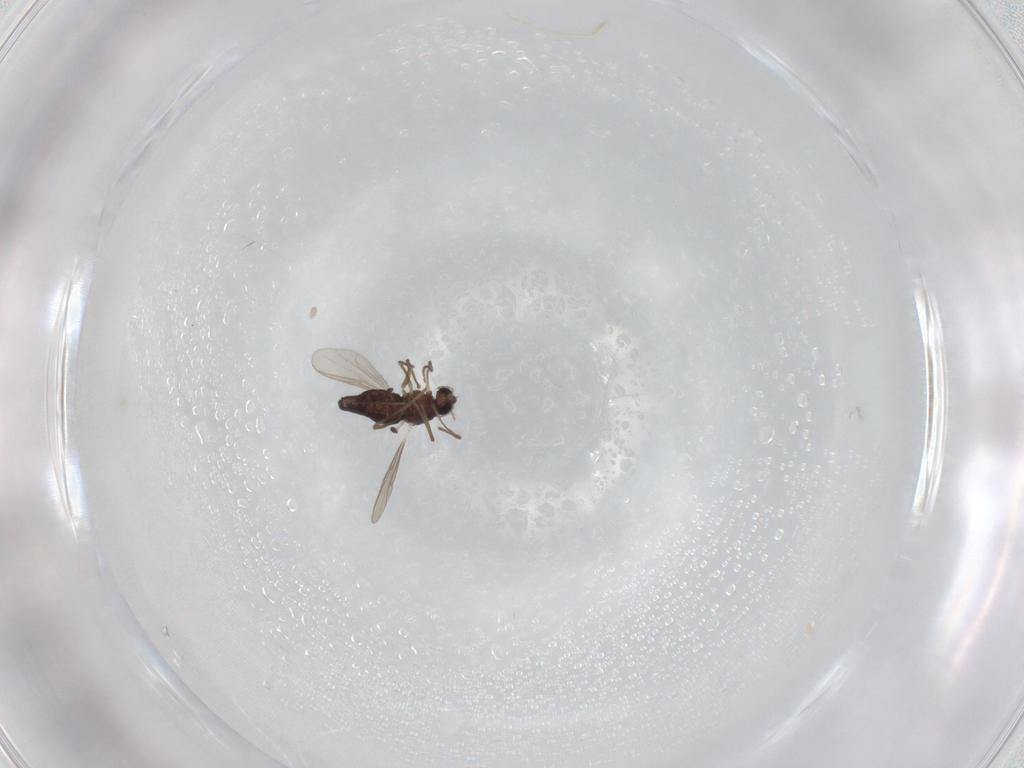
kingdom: Animalia
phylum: Arthropoda
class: Insecta
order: Diptera
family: Chironomidae
